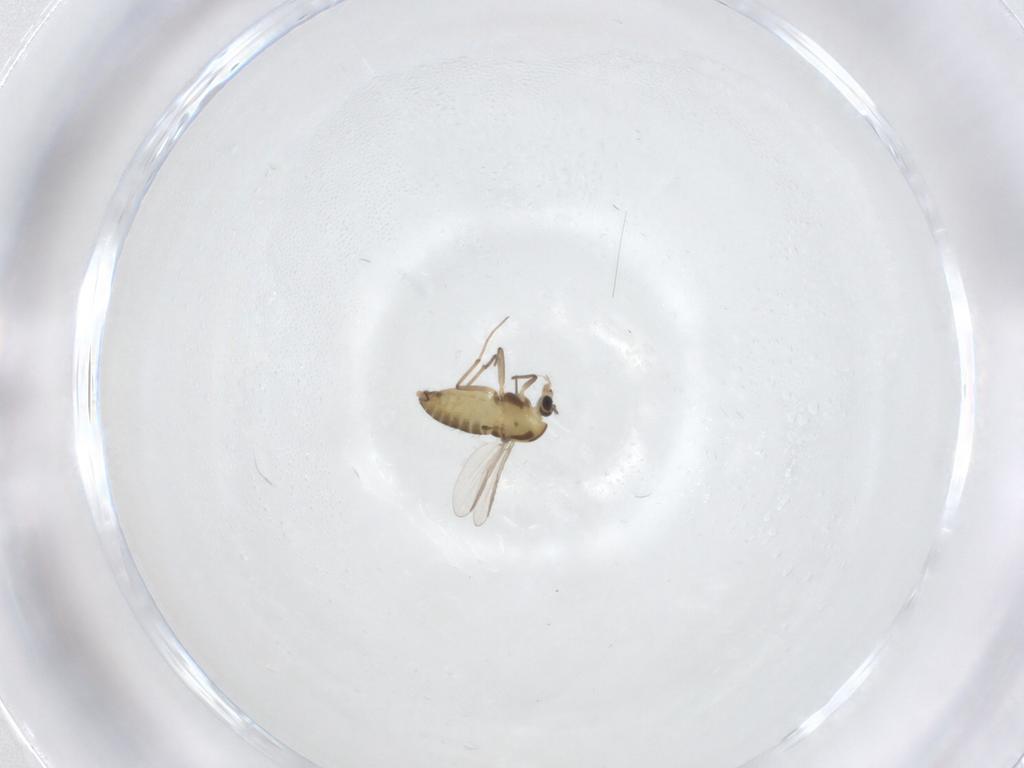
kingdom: Animalia
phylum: Arthropoda
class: Insecta
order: Diptera
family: Chironomidae
